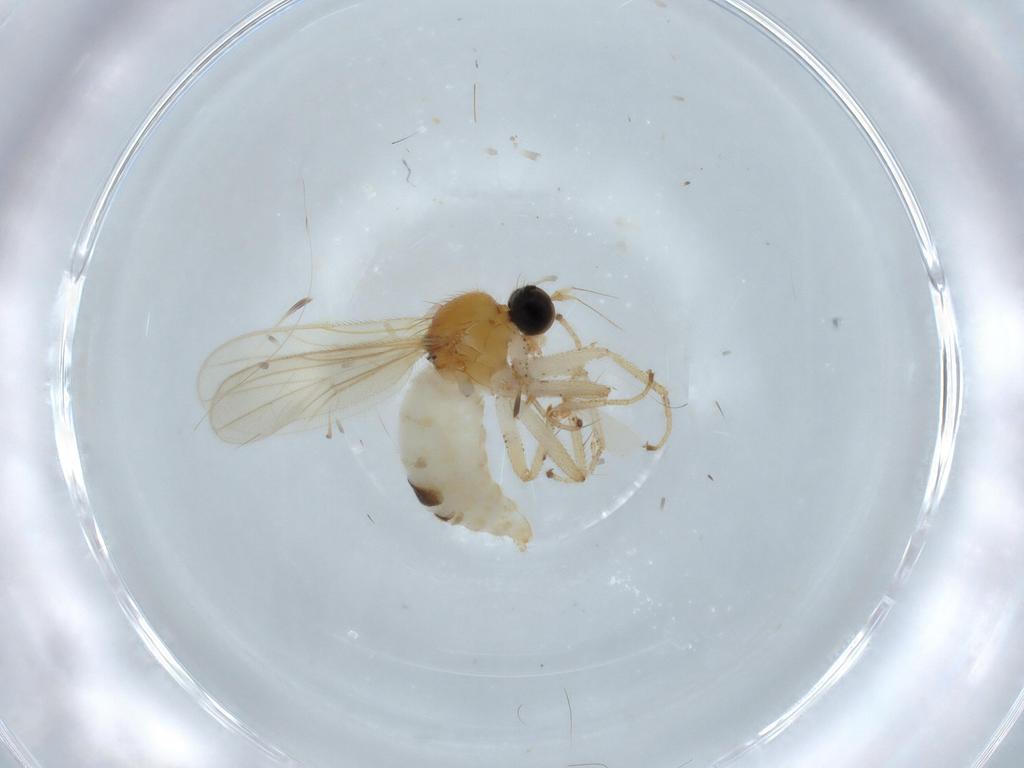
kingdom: Animalia
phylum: Arthropoda
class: Insecta
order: Diptera
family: Hybotidae
